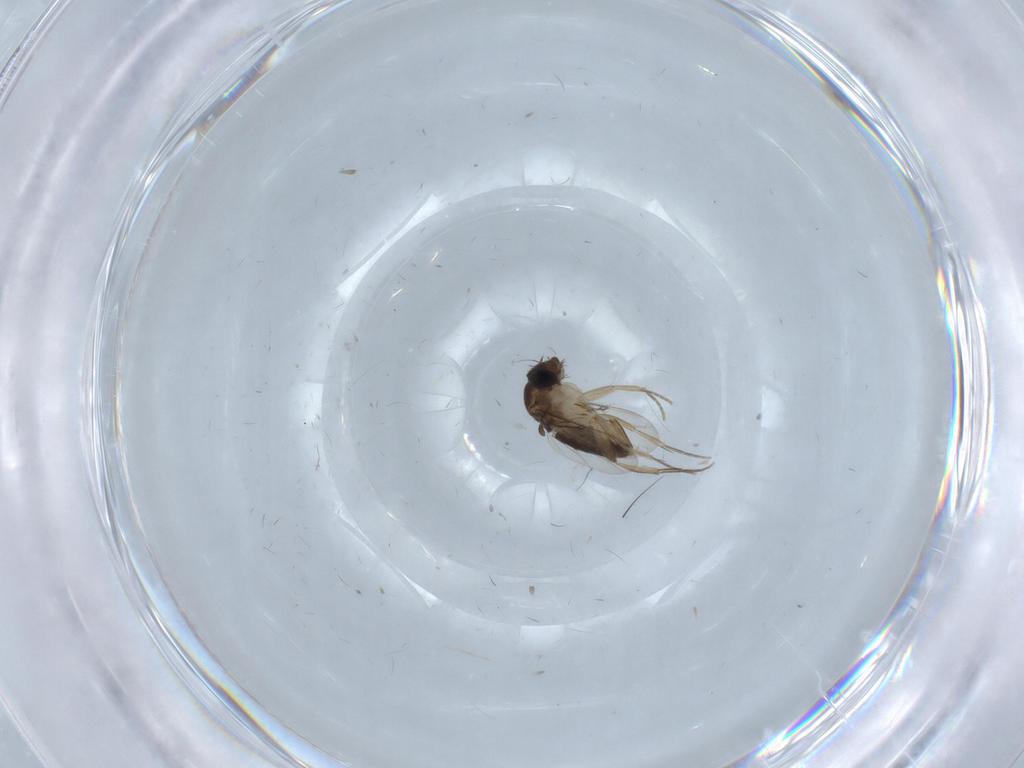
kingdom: Animalia
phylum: Arthropoda
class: Insecta
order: Diptera
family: Phoridae
